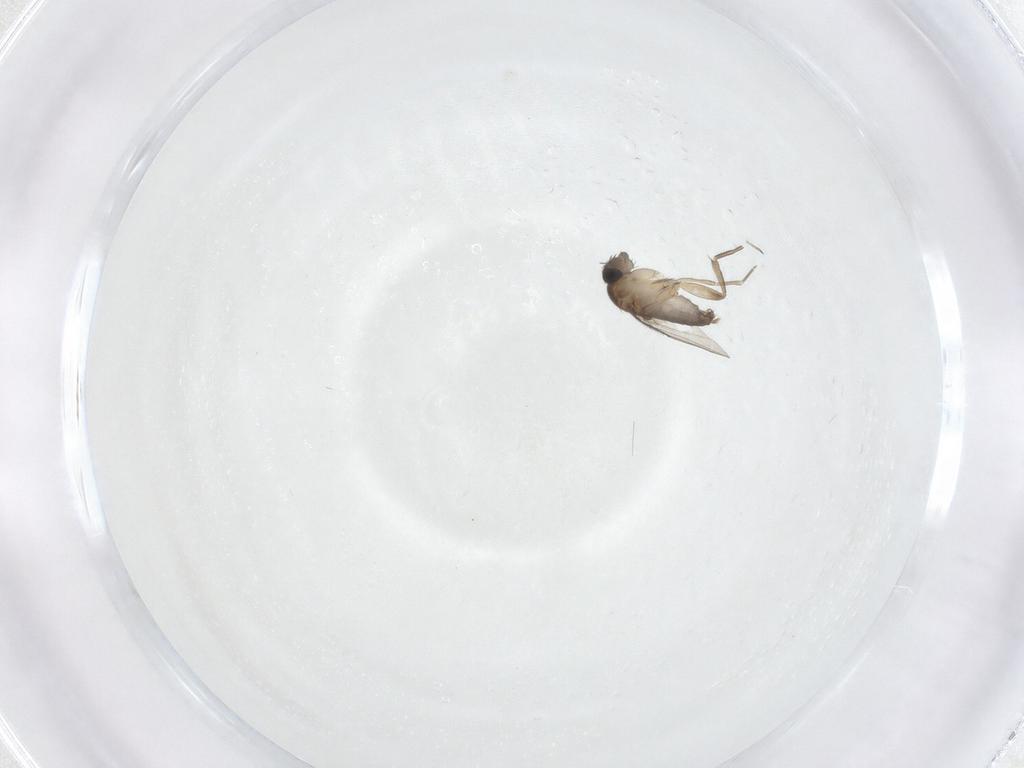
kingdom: Animalia
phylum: Arthropoda
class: Insecta
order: Diptera
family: Phoridae
